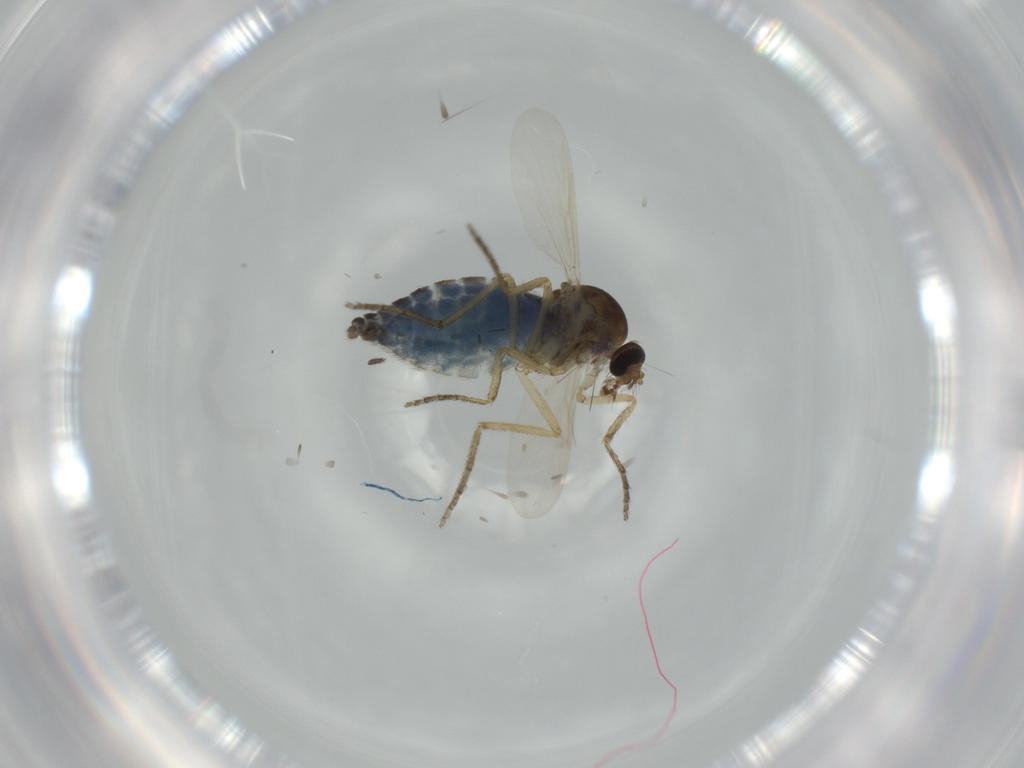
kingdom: Animalia
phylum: Arthropoda
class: Insecta
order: Diptera
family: Ceratopogonidae
